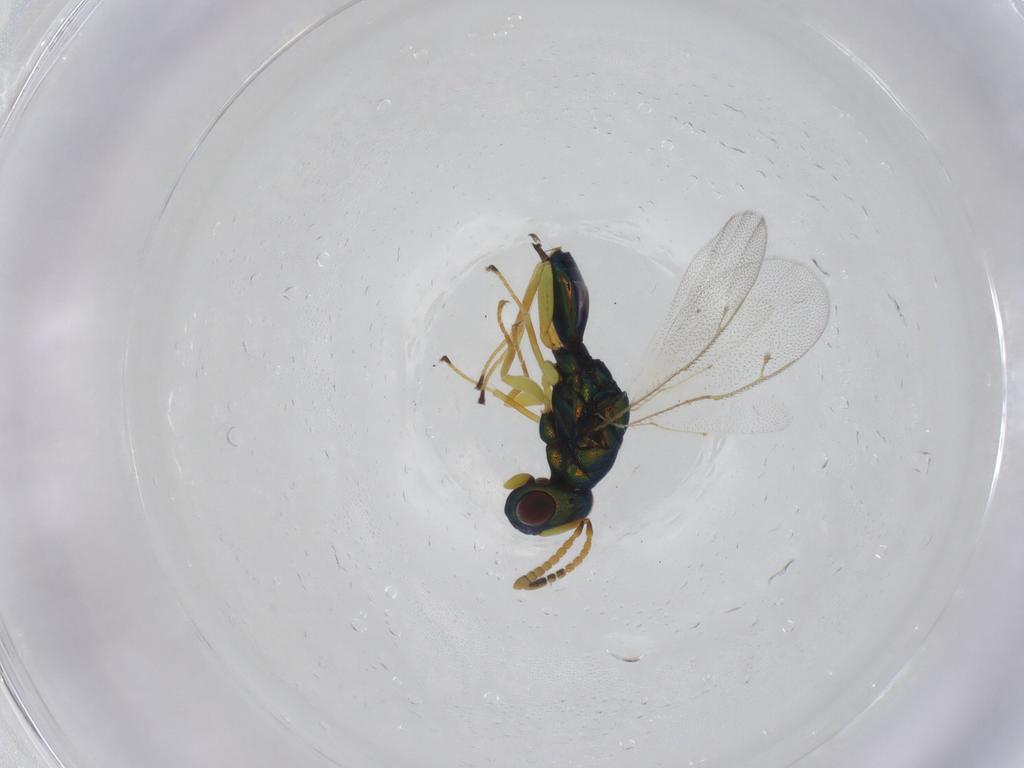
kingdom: Animalia
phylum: Arthropoda
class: Insecta
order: Hymenoptera
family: Pteromalidae
